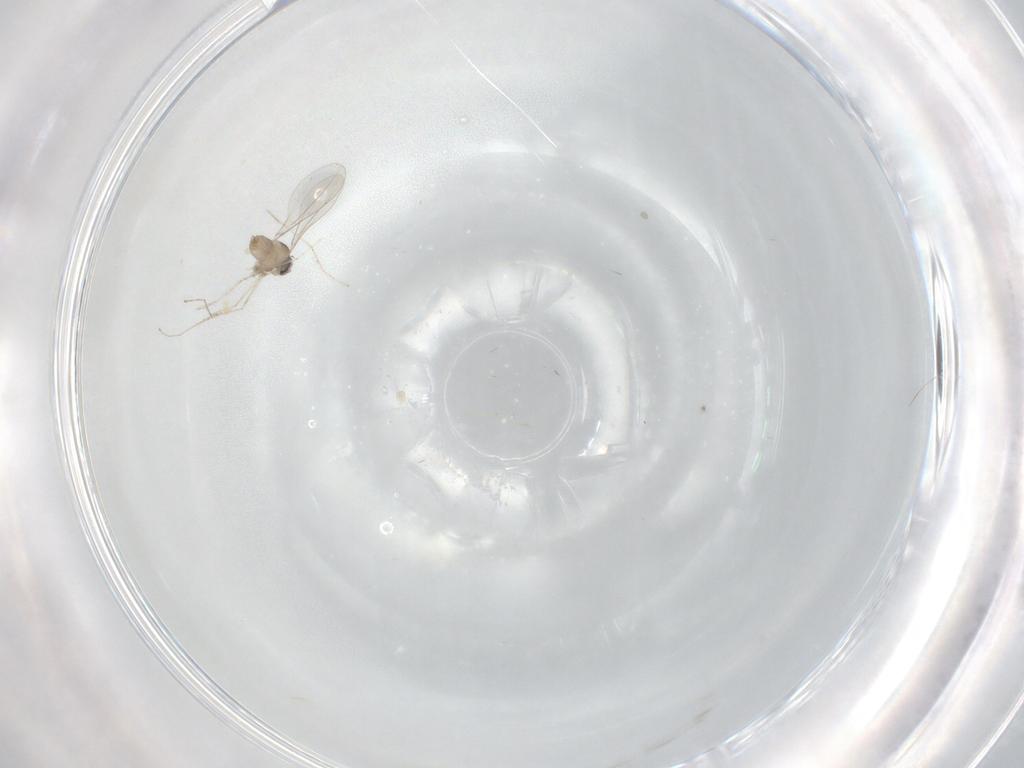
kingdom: Animalia
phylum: Arthropoda
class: Insecta
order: Diptera
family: Cecidomyiidae
